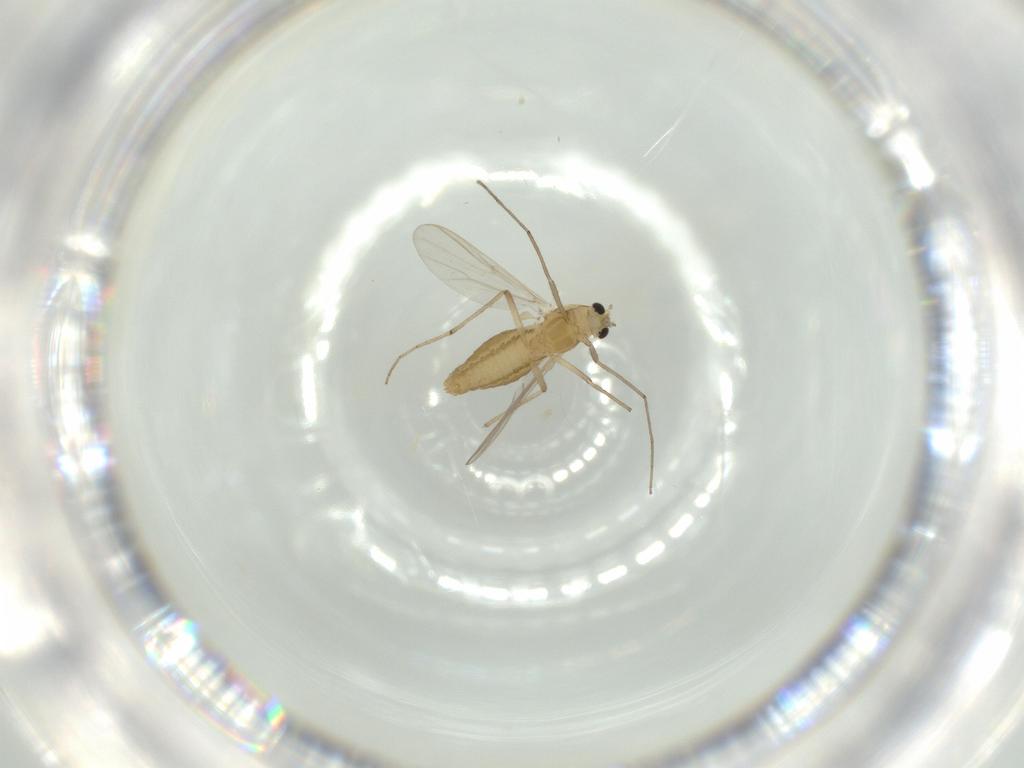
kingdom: Animalia
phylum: Arthropoda
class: Insecta
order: Diptera
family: Chironomidae
